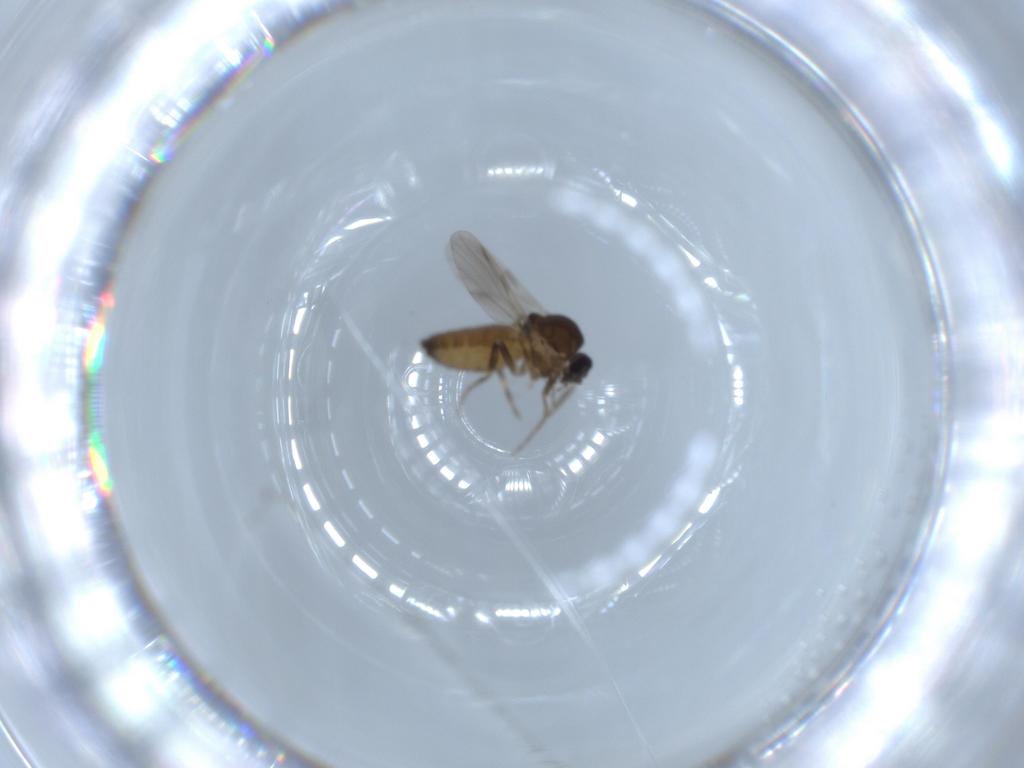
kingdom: Animalia
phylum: Arthropoda
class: Insecta
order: Diptera
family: Ceratopogonidae
